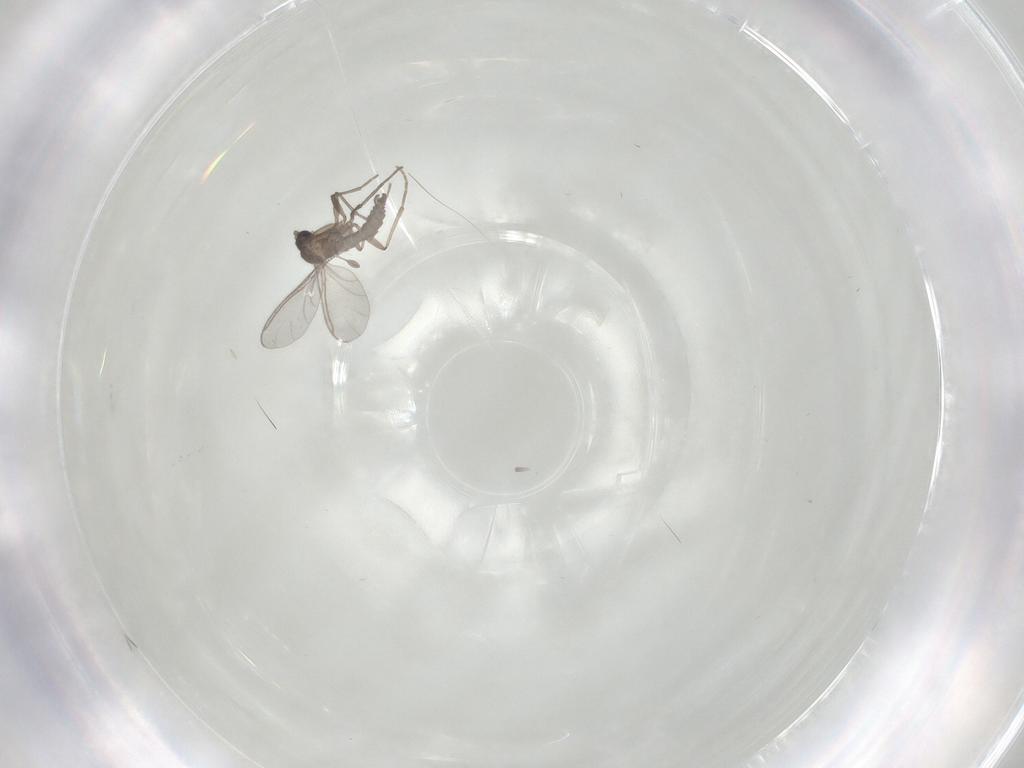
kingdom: Animalia
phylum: Arthropoda
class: Insecta
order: Diptera
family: Sciaridae
